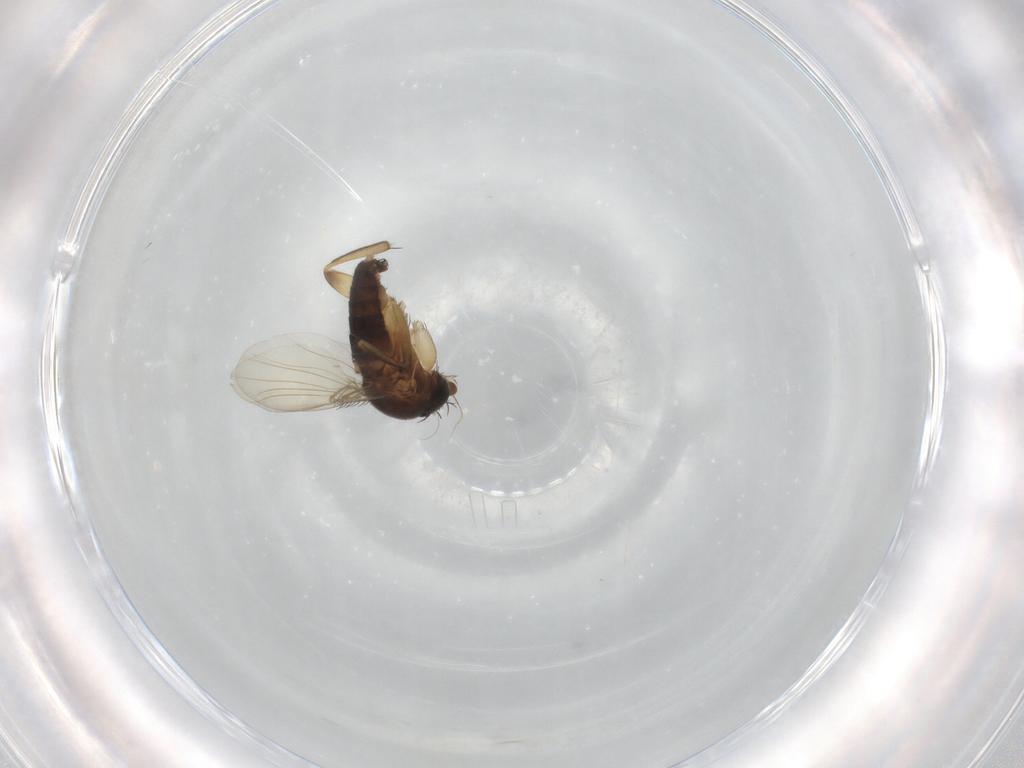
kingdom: Animalia
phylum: Arthropoda
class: Insecta
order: Diptera
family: Phoridae
